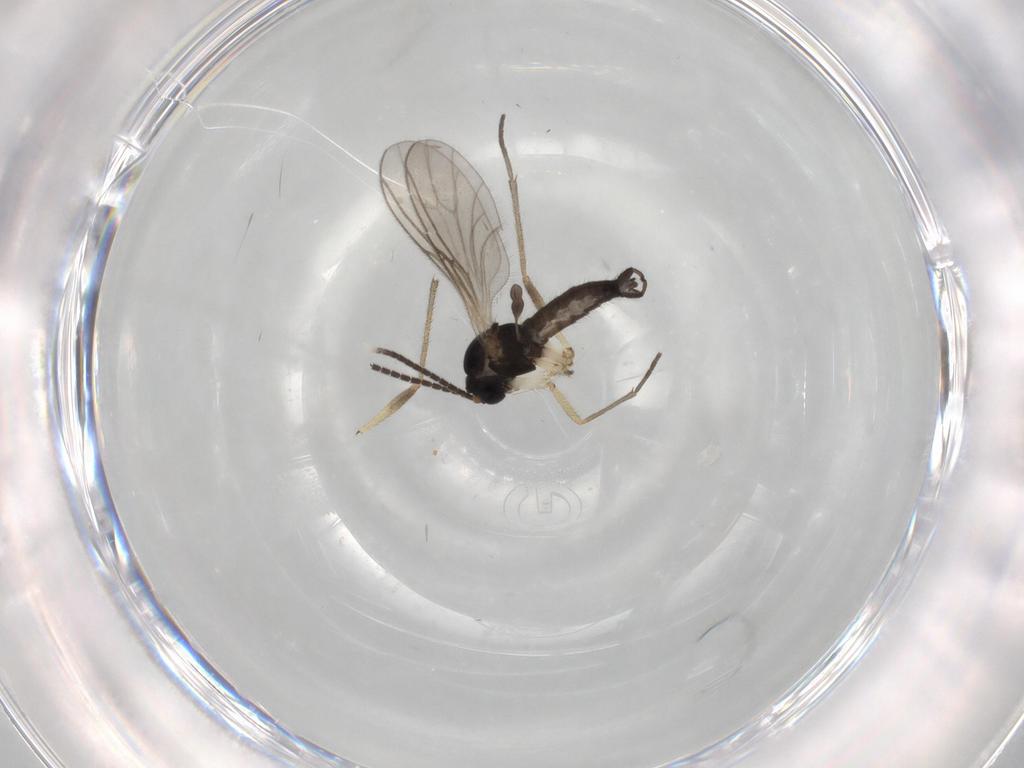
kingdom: Animalia
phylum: Arthropoda
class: Insecta
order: Diptera
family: Sciaridae
